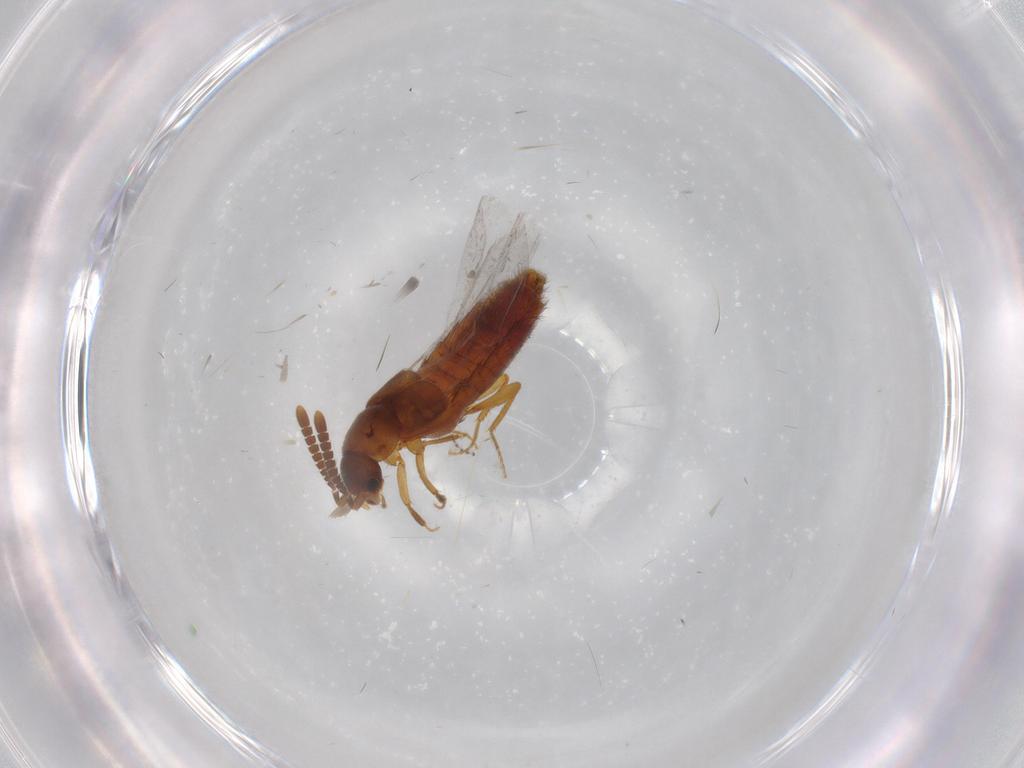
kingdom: Animalia
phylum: Arthropoda
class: Insecta
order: Coleoptera
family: Staphylinidae
